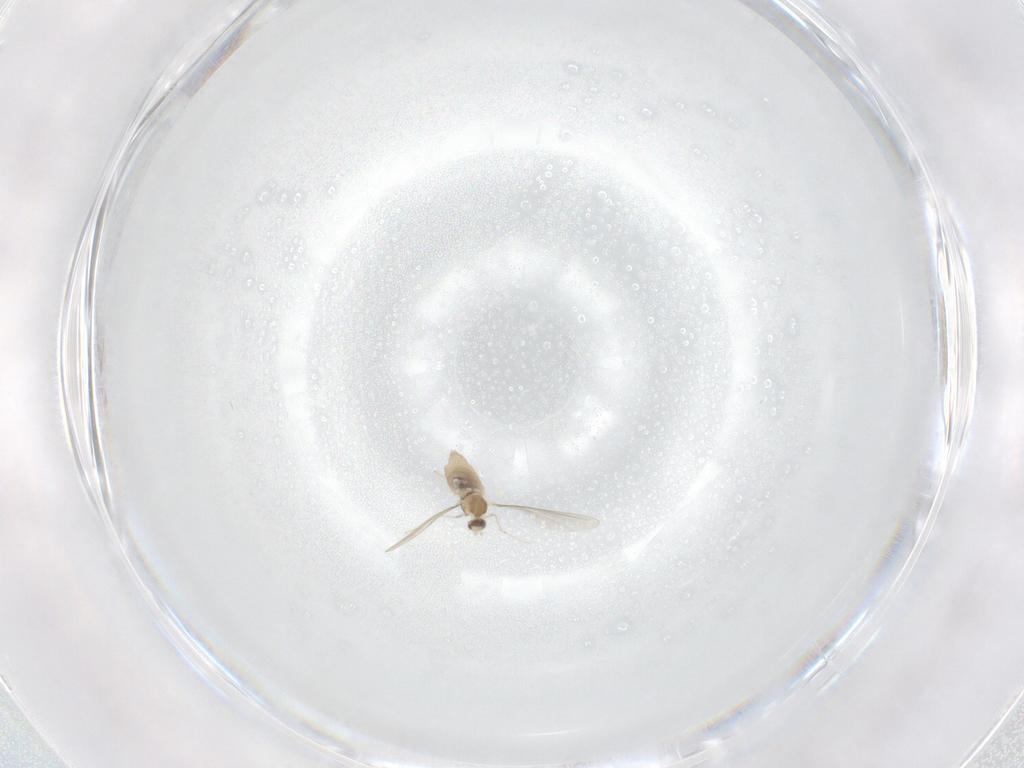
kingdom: Animalia
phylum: Arthropoda
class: Insecta
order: Diptera
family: Cecidomyiidae
